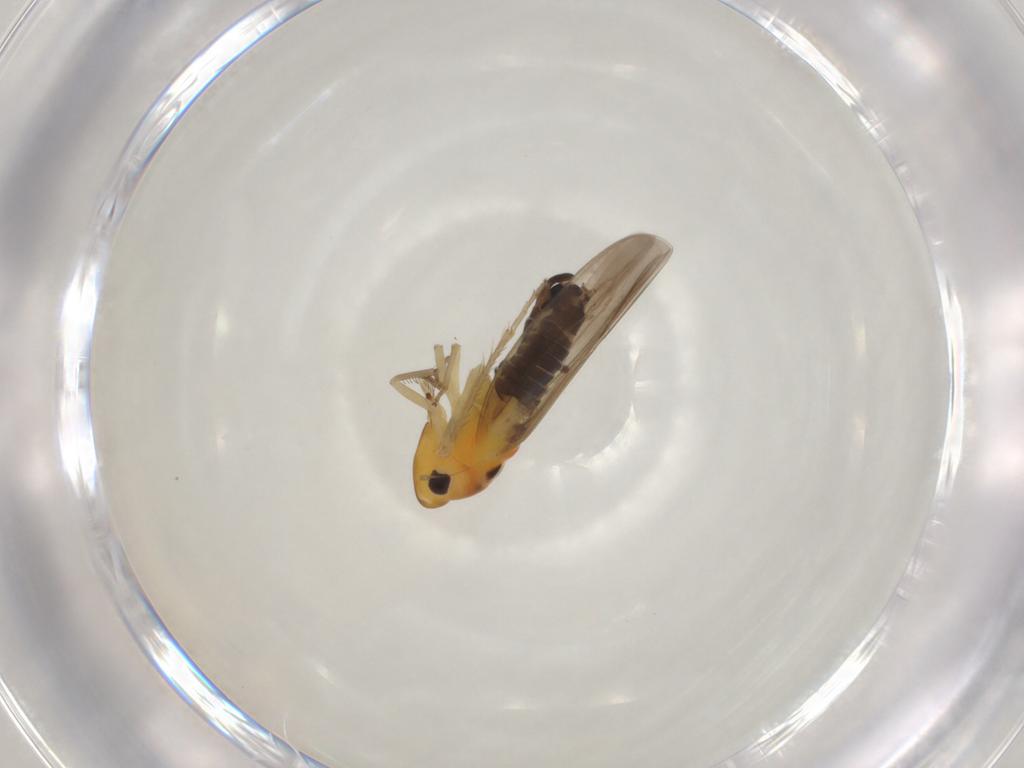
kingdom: Animalia
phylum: Arthropoda
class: Insecta
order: Hemiptera
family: Cicadellidae
